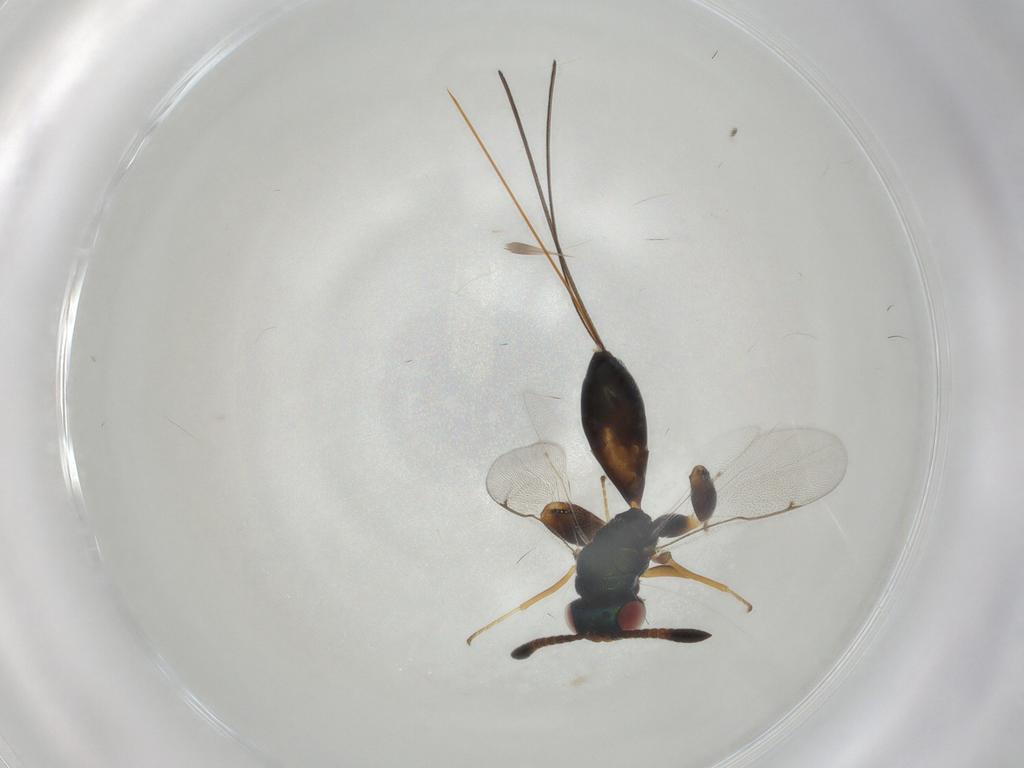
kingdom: Animalia
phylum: Arthropoda
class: Insecta
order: Hymenoptera
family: Torymidae
